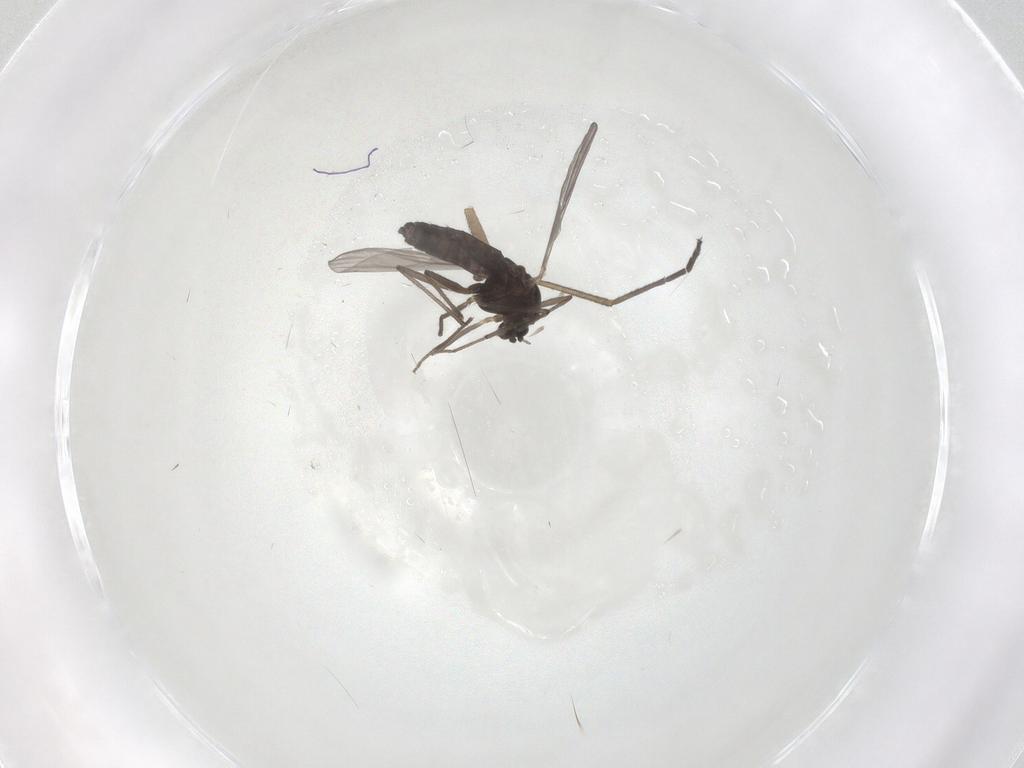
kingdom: Animalia
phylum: Arthropoda
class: Insecta
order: Diptera
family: Chironomidae
